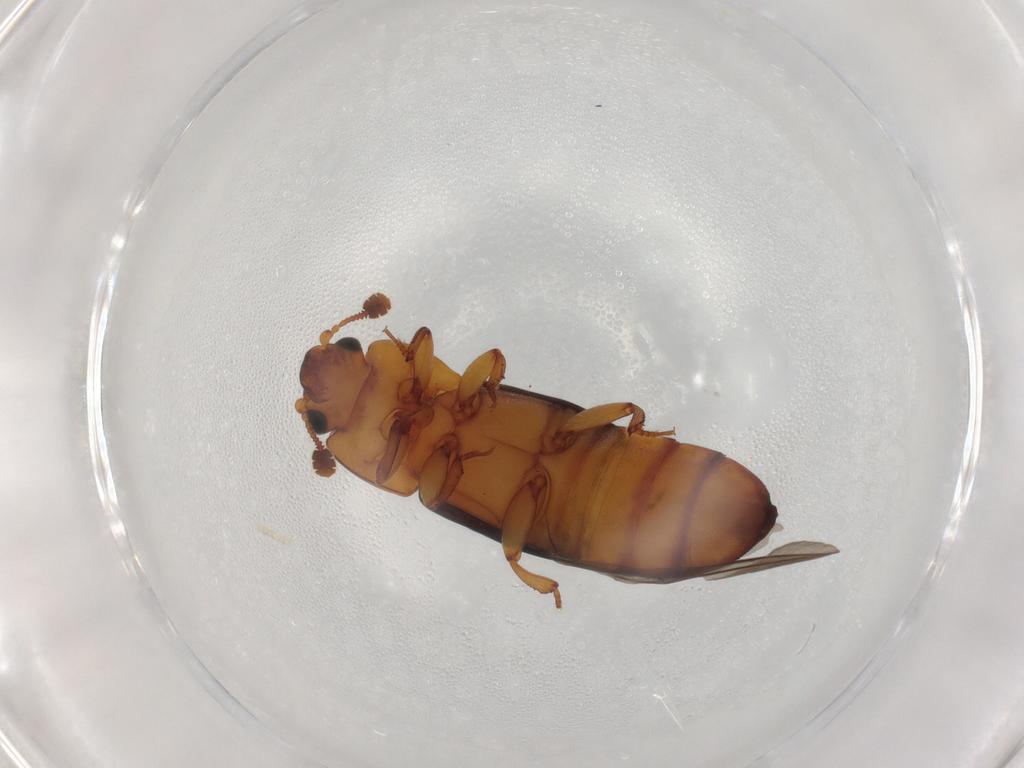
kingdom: Animalia
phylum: Arthropoda
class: Insecta
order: Coleoptera
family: Nitidulidae
